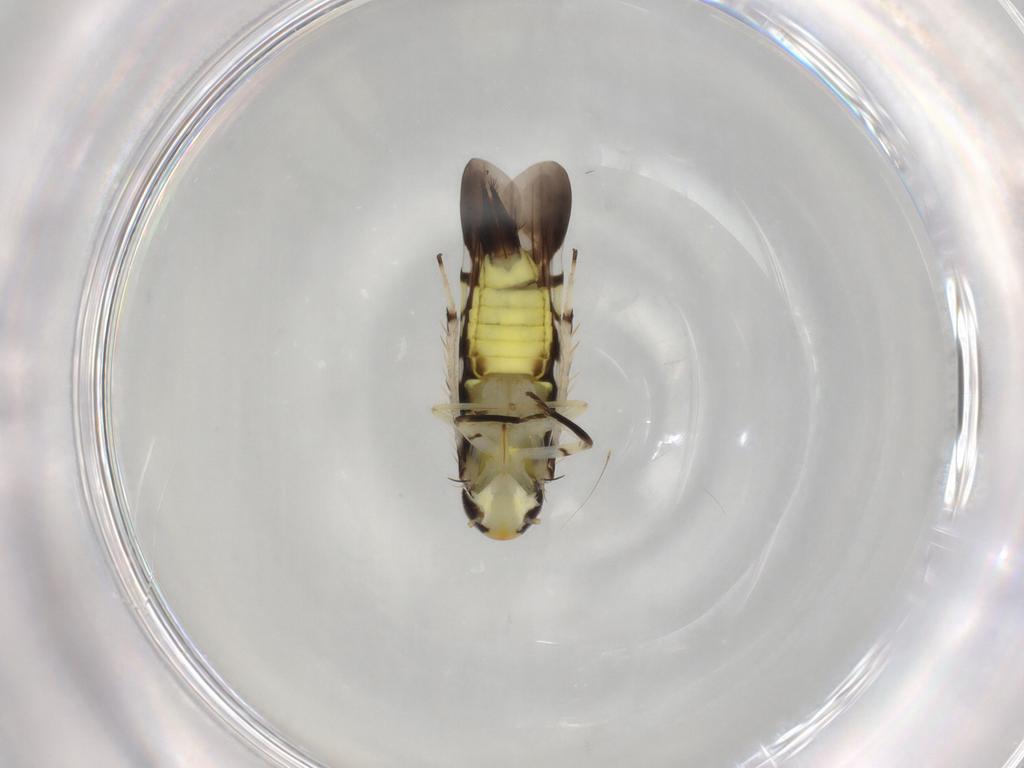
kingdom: Animalia
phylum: Arthropoda
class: Insecta
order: Hemiptera
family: Cicadellidae
